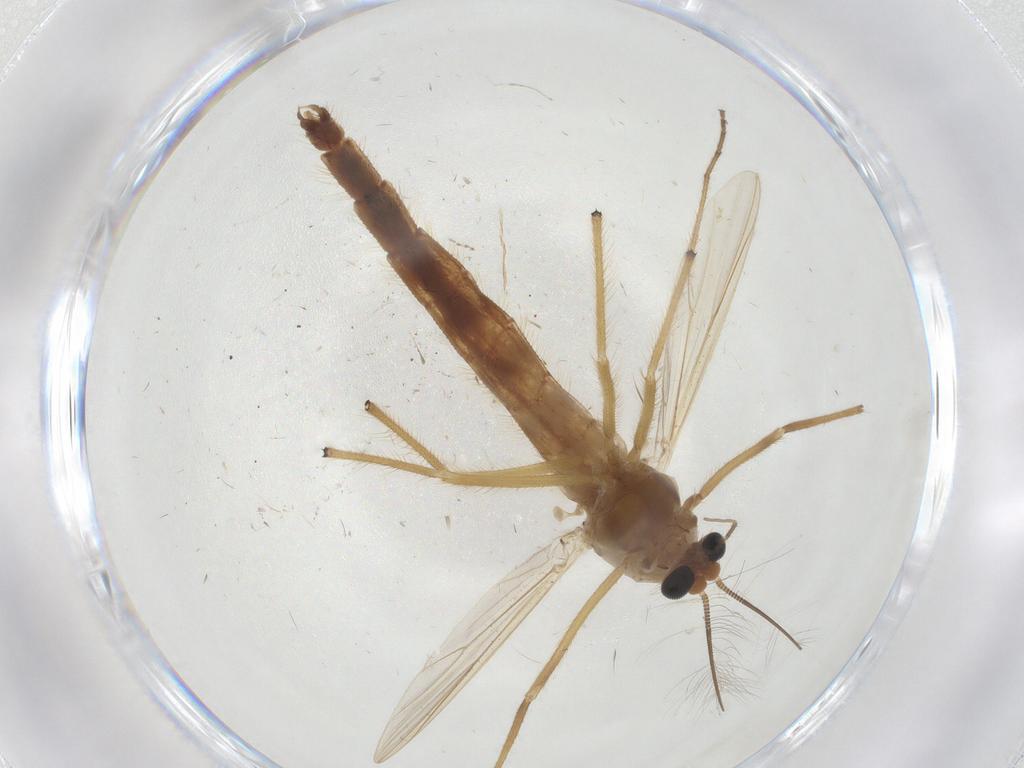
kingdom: Animalia
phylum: Arthropoda
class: Insecta
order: Diptera
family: Chironomidae
